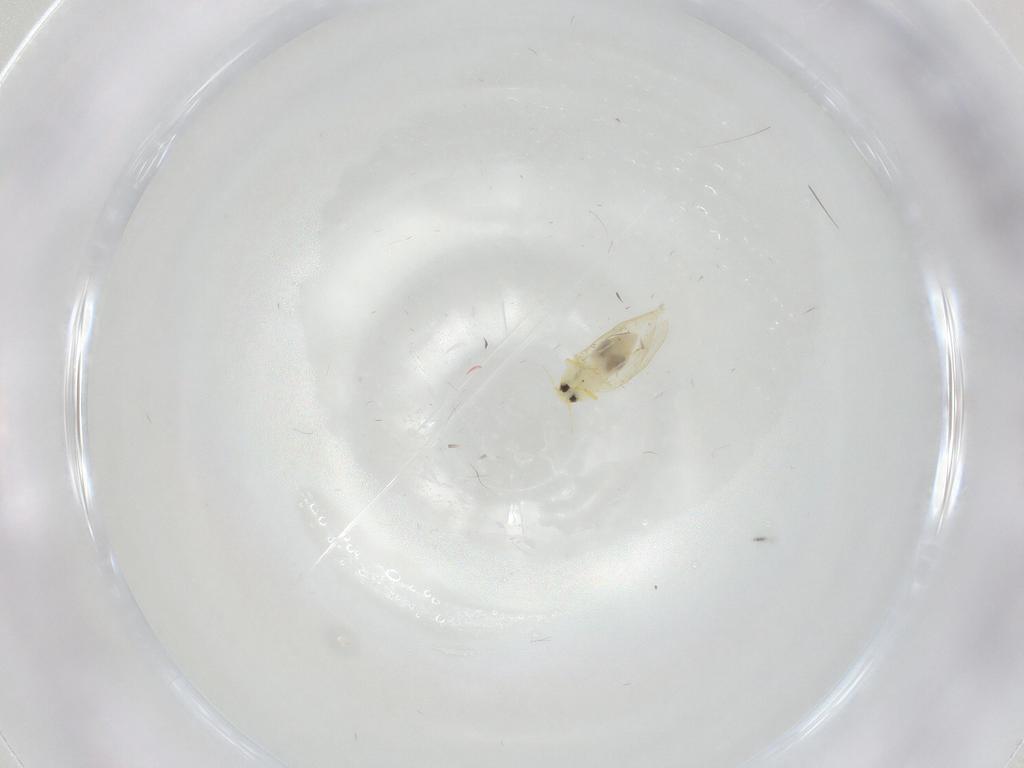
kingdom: Animalia
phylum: Arthropoda
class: Insecta
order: Hemiptera
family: Aleyrodidae
